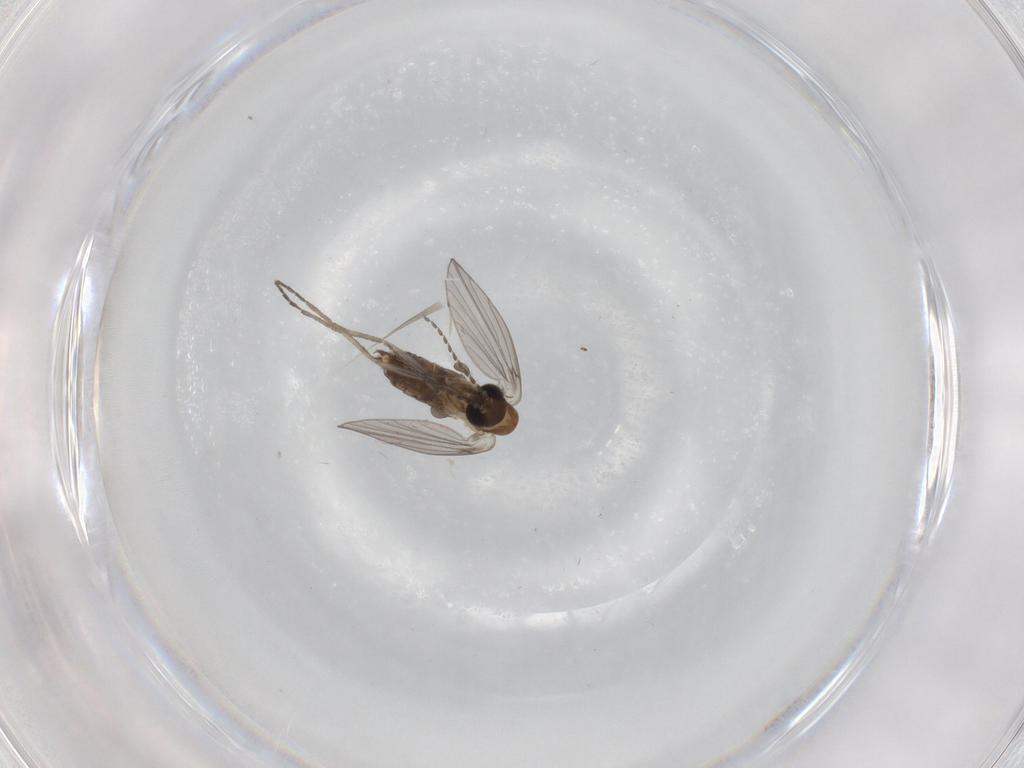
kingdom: Animalia
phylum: Arthropoda
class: Insecta
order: Diptera
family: Psychodidae
